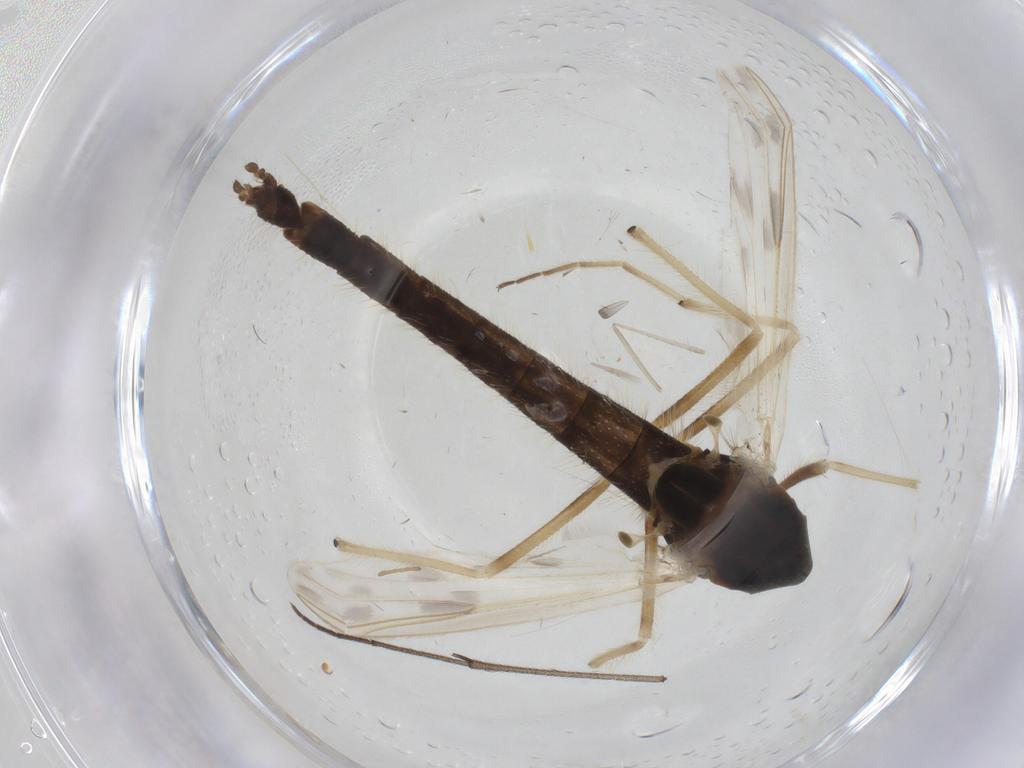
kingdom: Animalia
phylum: Arthropoda
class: Insecta
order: Diptera
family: Chironomidae
